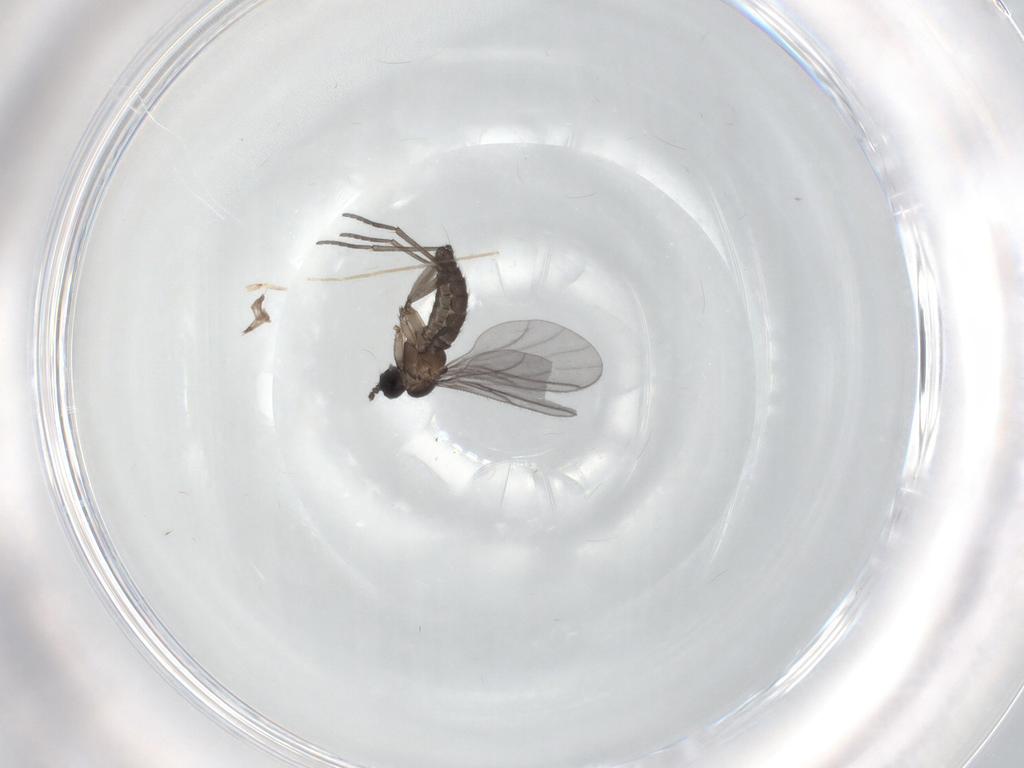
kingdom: Animalia
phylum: Arthropoda
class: Insecta
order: Diptera
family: Chironomidae
